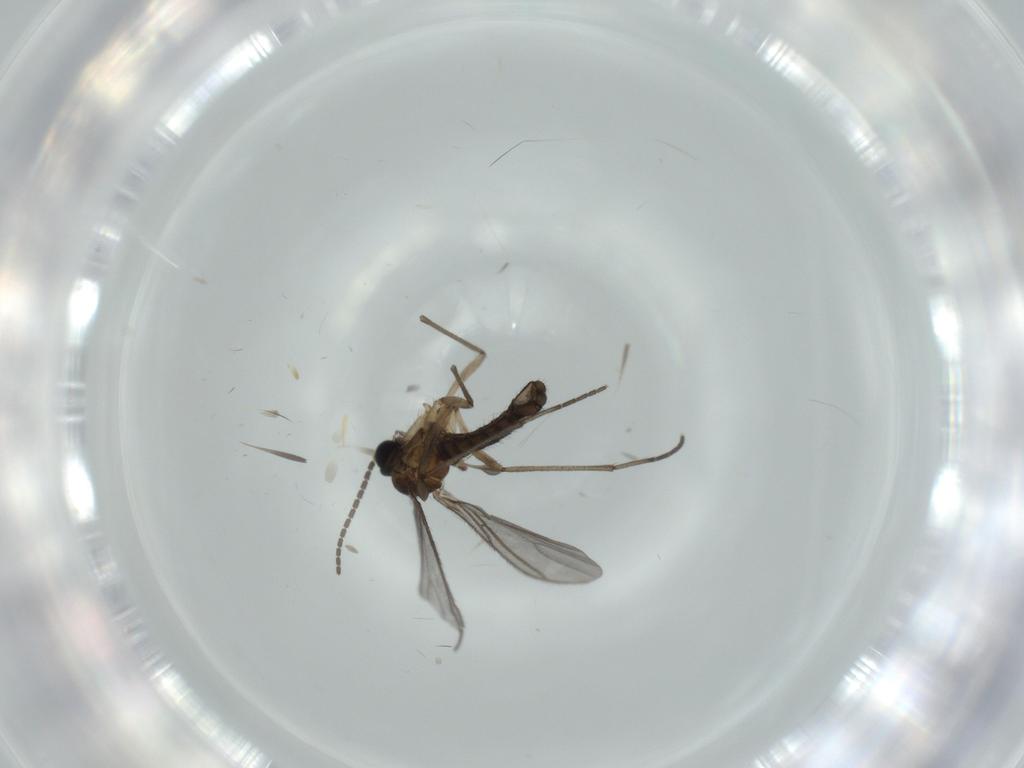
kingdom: Animalia
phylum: Arthropoda
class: Insecta
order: Diptera
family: Sciaridae
